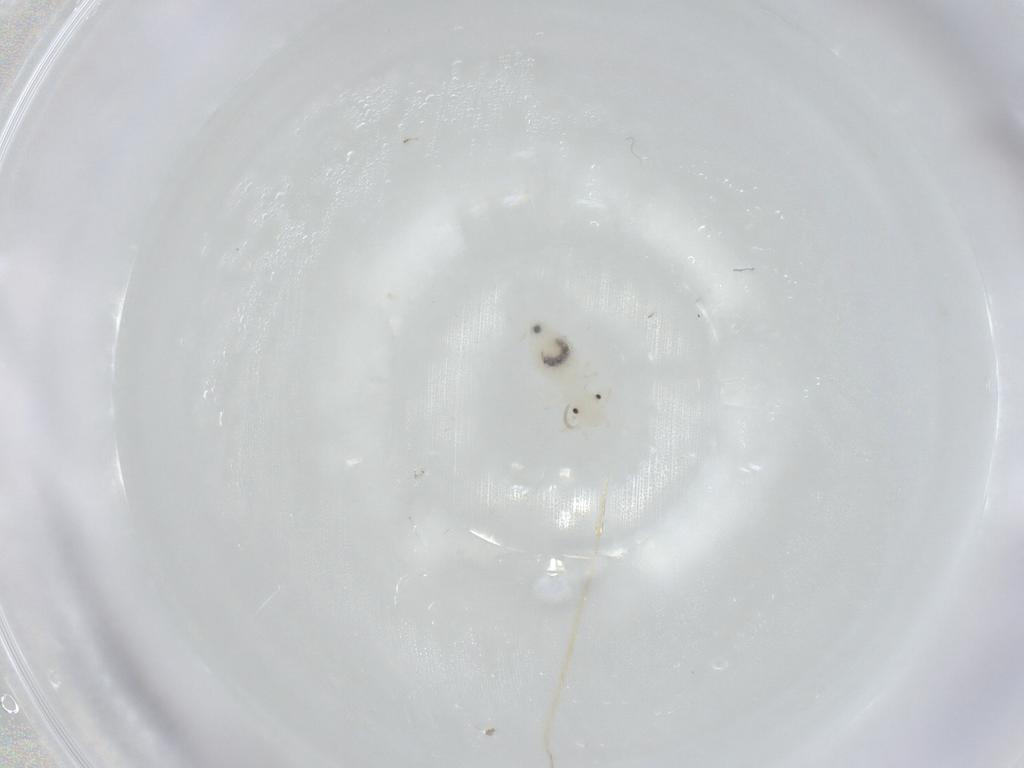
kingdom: Animalia
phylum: Arthropoda
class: Insecta
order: Psocodea
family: Caeciliusidae
